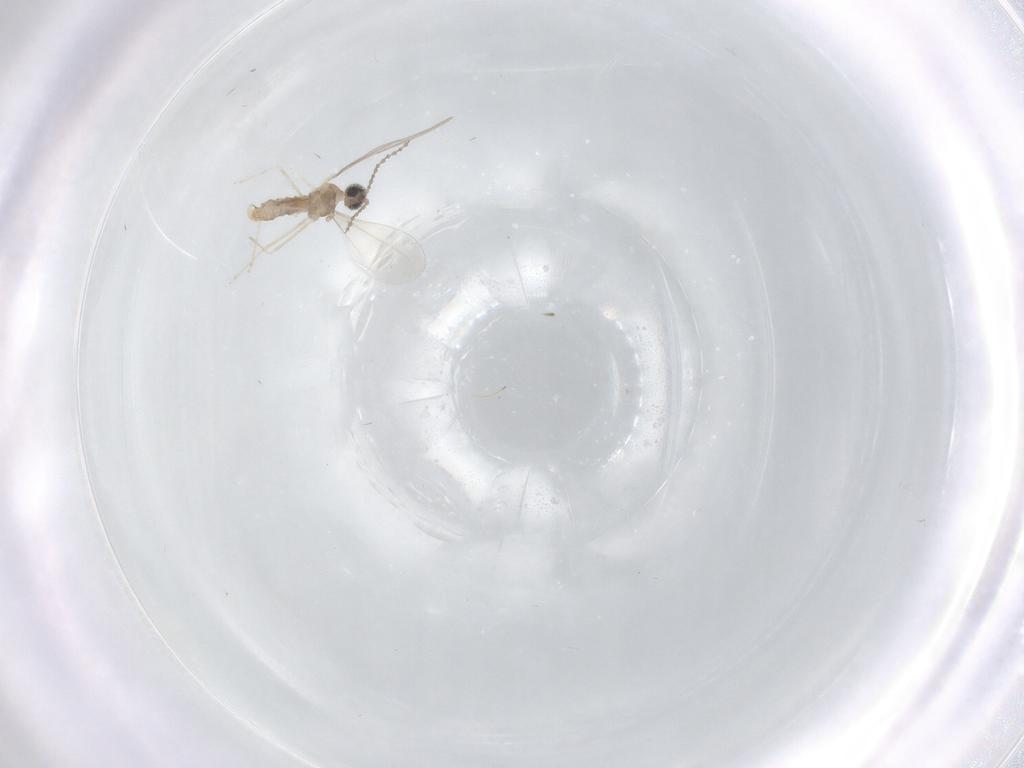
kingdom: Animalia
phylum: Arthropoda
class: Insecta
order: Diptera
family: Cecidomyiidae
